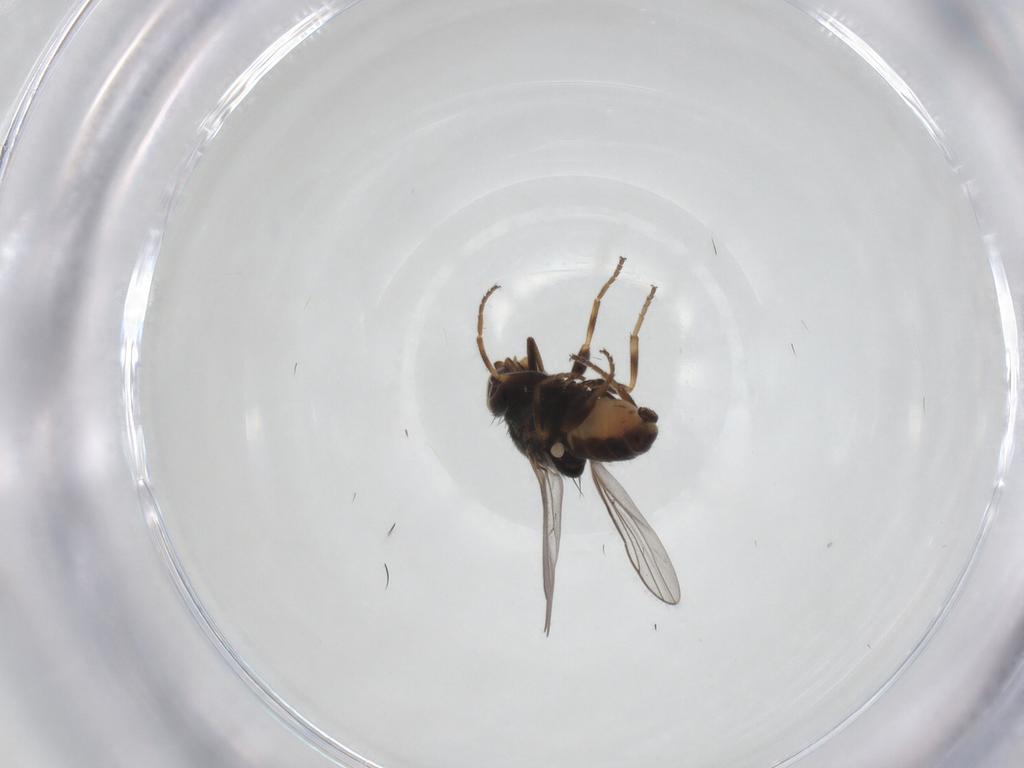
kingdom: Animalia
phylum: Arthropoda
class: Insecta
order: Diptera
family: Chloropidae
